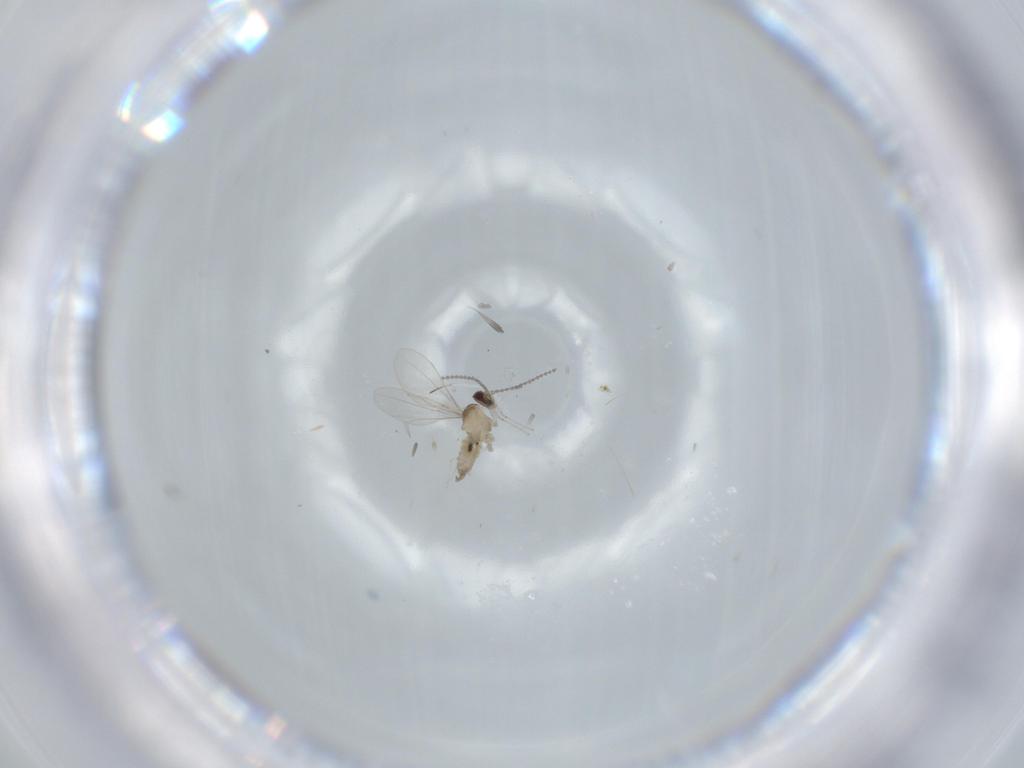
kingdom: Animalia
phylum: Arthropoda
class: Insecta
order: Diptera
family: Cecidomyiidae
